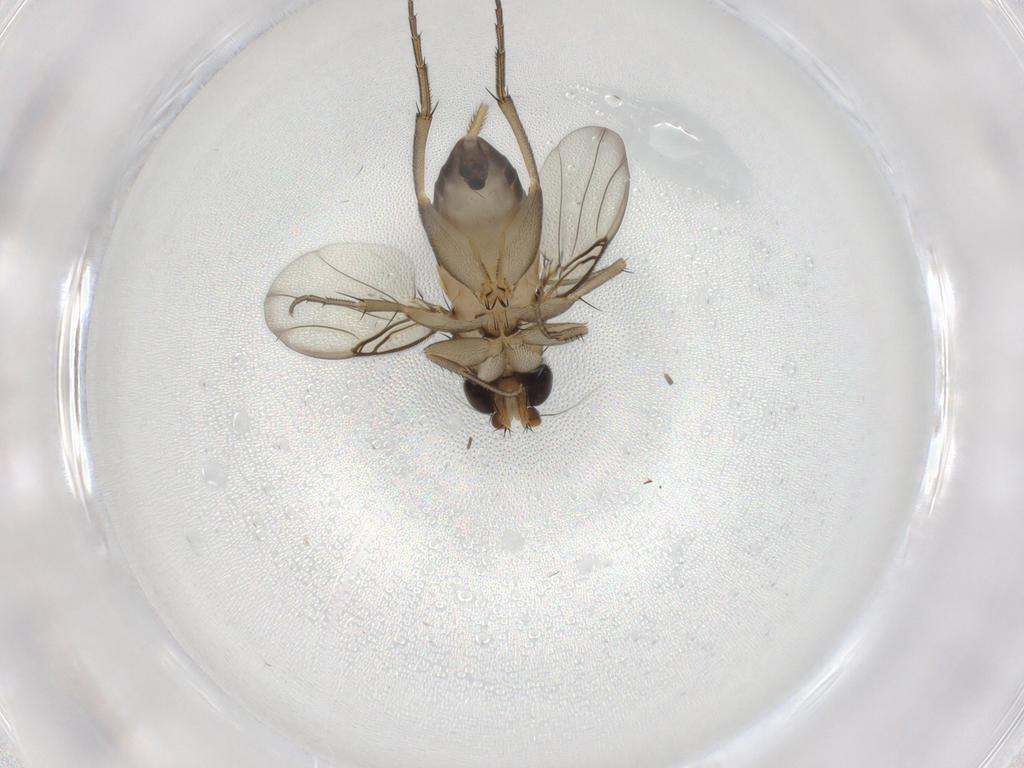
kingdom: Animalia
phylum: Arthropoda
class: Insecta
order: Diptera
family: Phoridae
